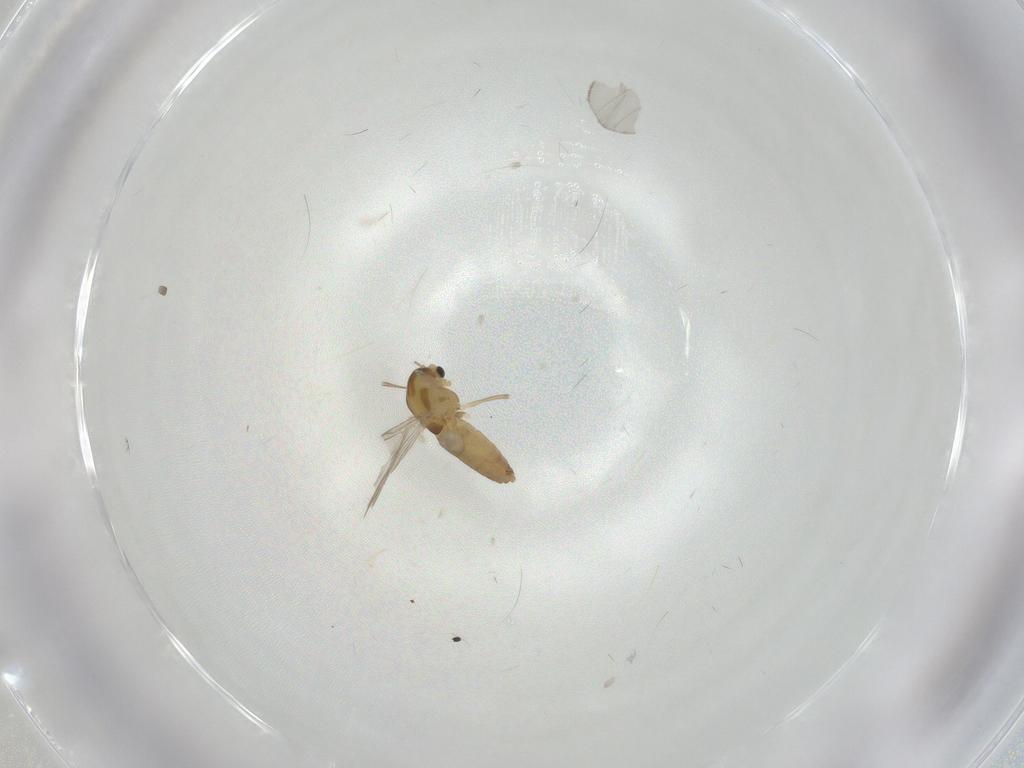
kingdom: Animalia
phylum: Arthropoda
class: Insecta
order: Diptera
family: Chironomidae
